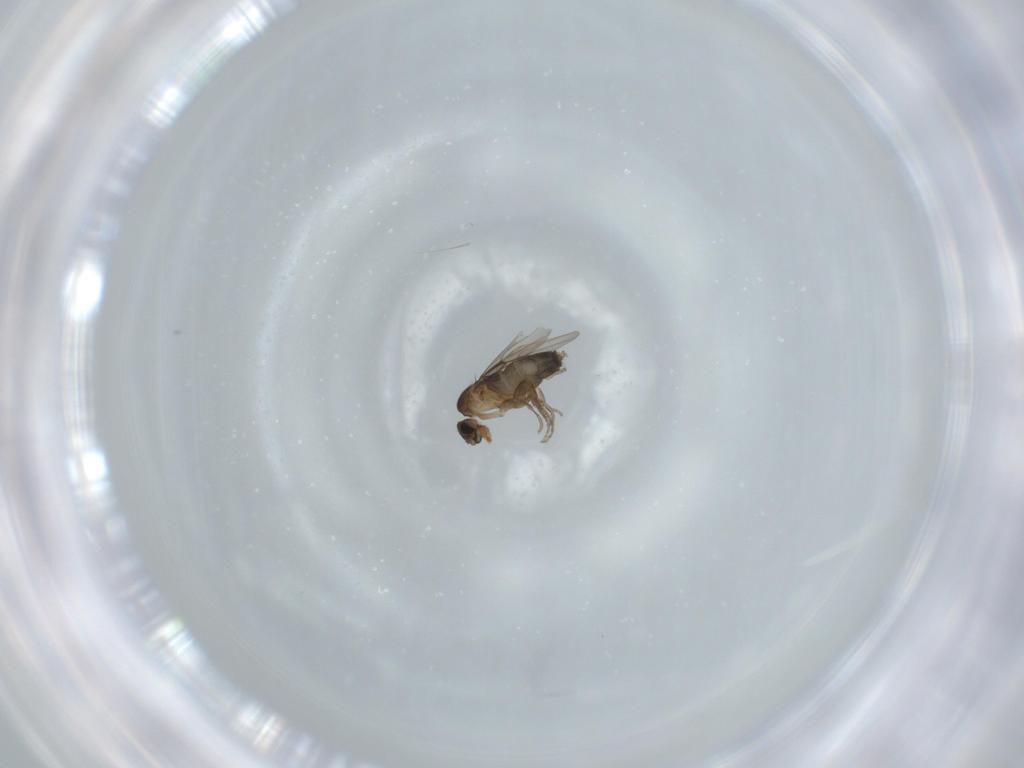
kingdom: Animalia
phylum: Arthropoda
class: Insecta
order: Diptera
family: Phoridae
